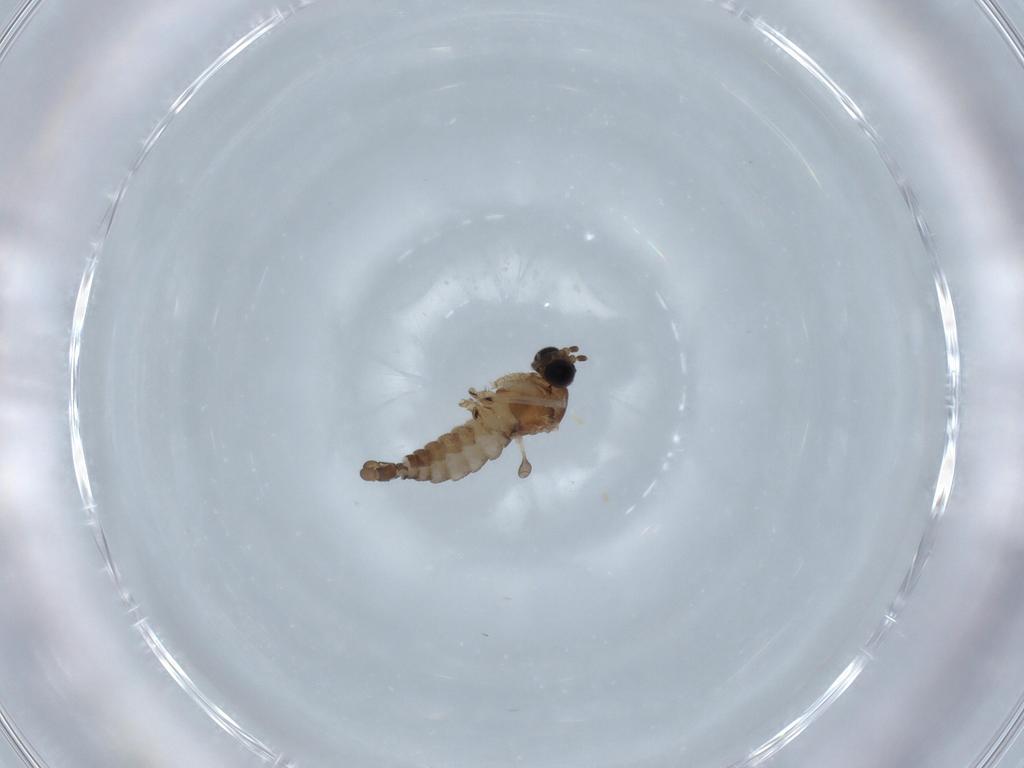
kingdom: Animalia
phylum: Arthropoda
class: Insecta
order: Diptera
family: Sciaridae
